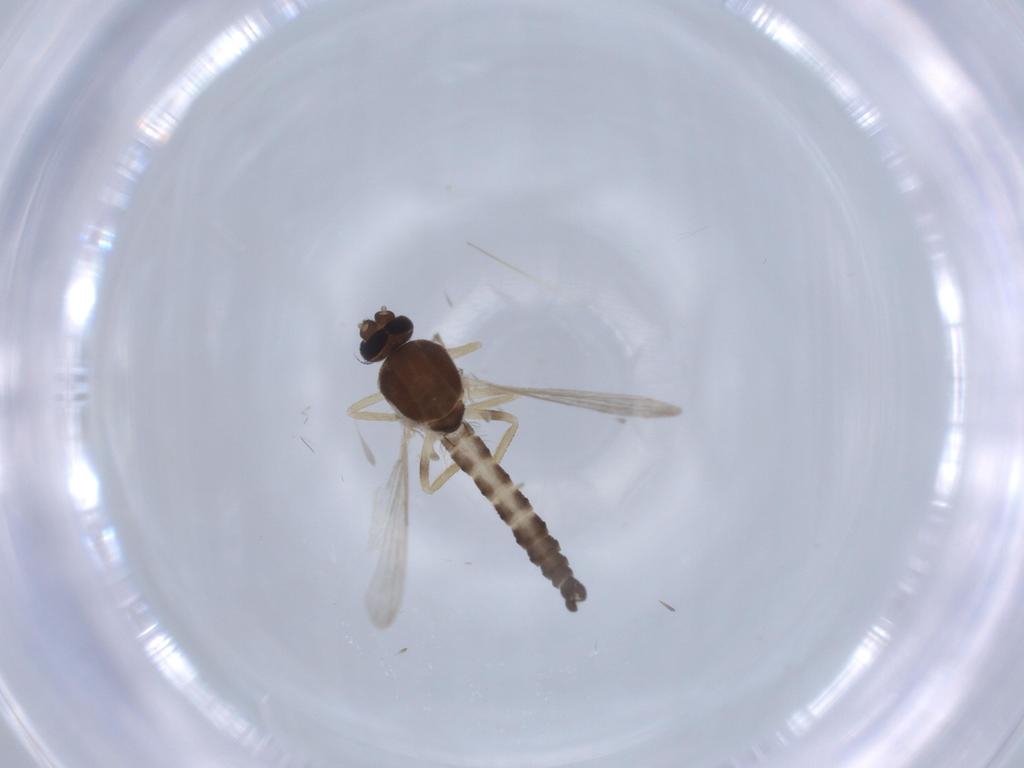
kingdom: Animalia
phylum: Arthropoda
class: Insecta
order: Diptera
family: Ceratopogonidae
